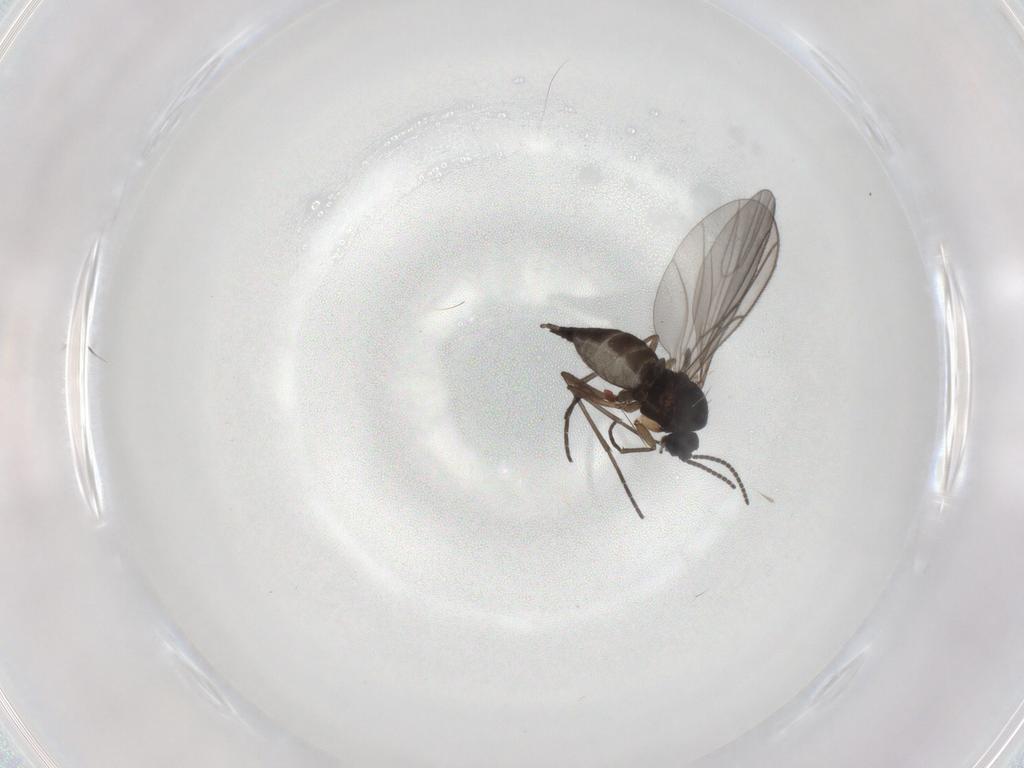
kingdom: Animalia
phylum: Arthropoda
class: Insecta
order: Diptera
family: Sciaridae
